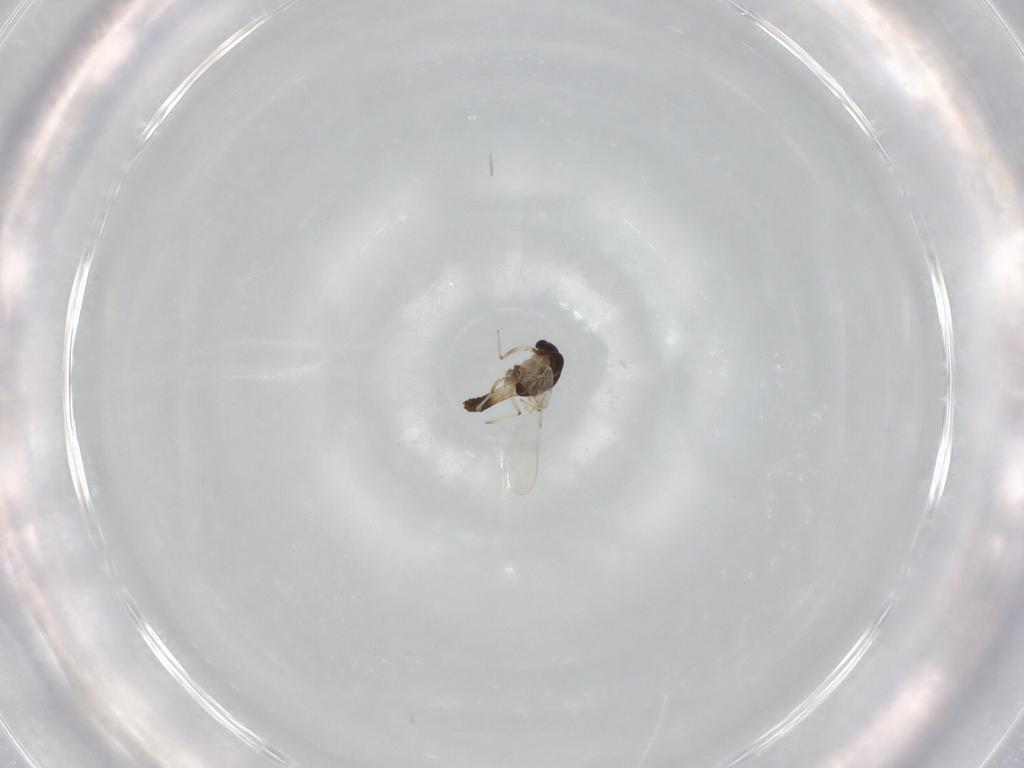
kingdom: Animalia
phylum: Arthropoda
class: Insecta
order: Diptera
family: Chironomidae
